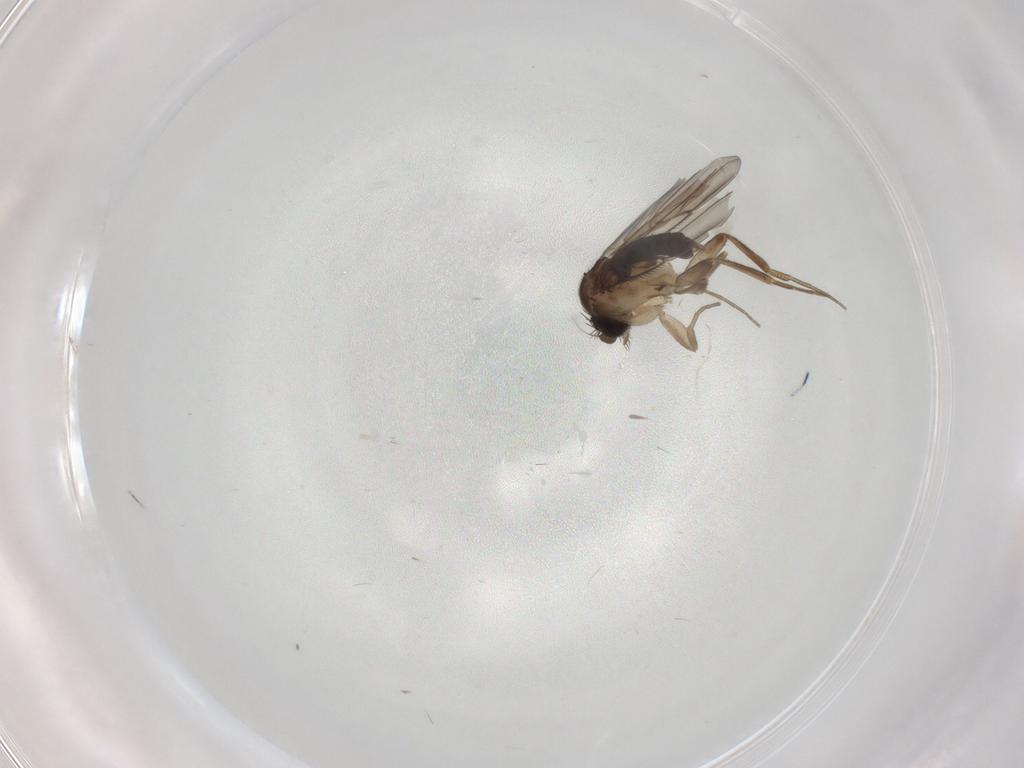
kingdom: Animalia
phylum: Arthropoda
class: Insecta
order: Diptera
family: Phoridae
